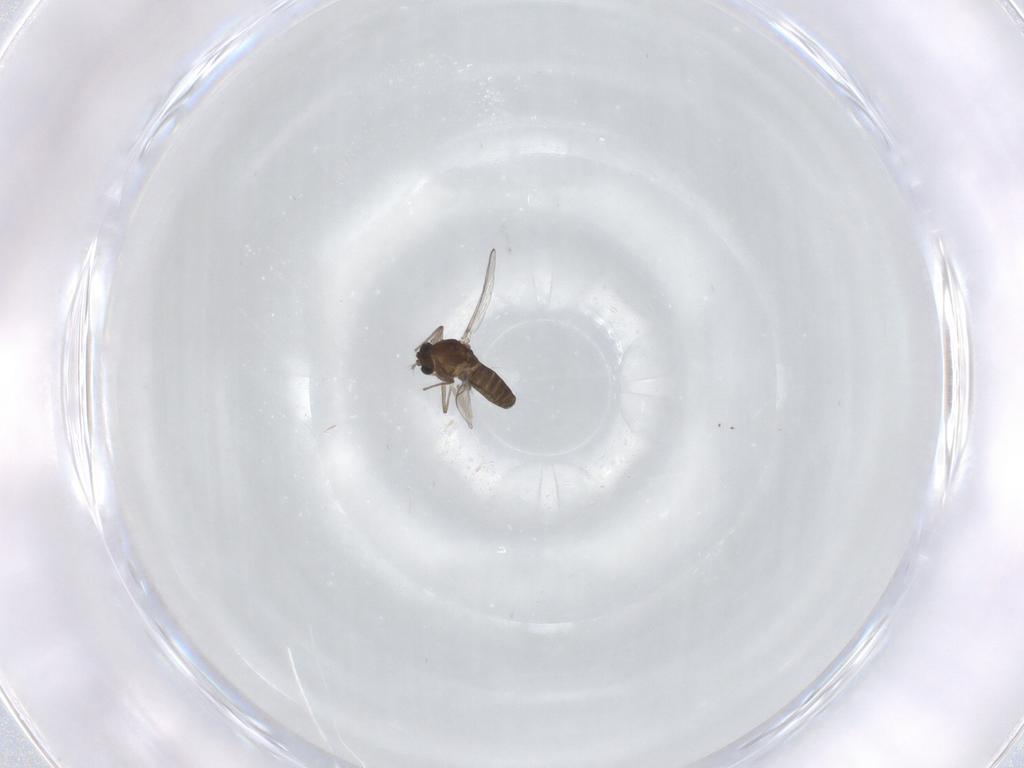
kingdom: Animalia
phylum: Arthropoda
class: Insecta
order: Diptera
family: Chironomidae
